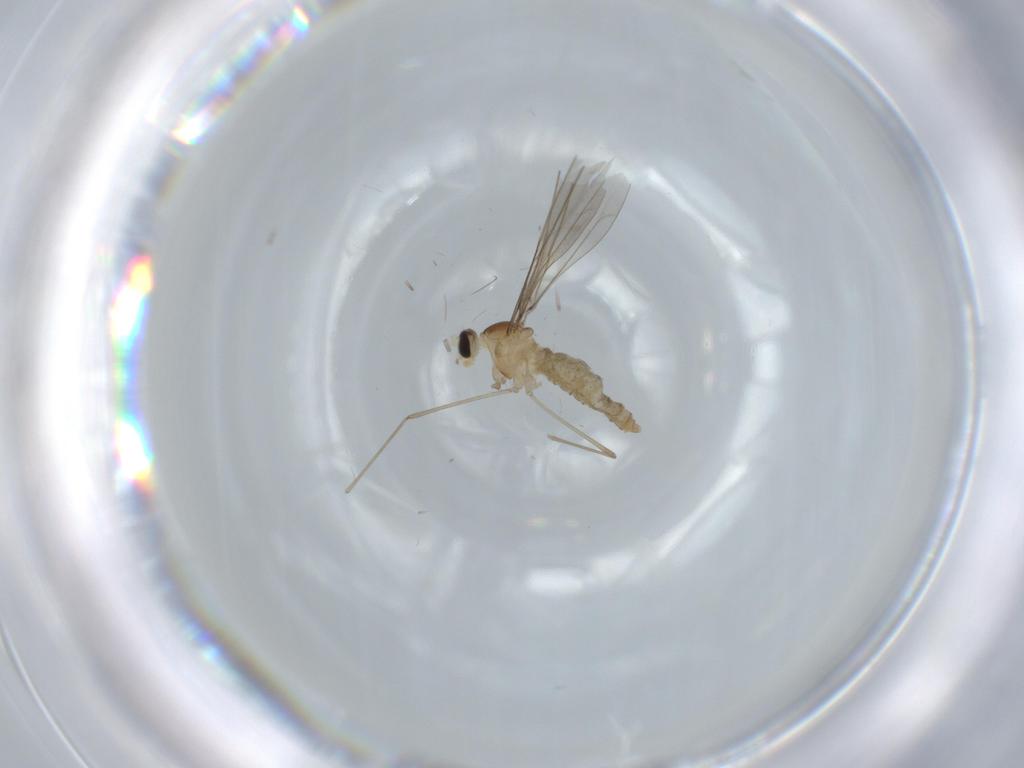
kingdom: Animalia
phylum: Arthropoda
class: Insecta
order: Diptera
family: Cecidomyiidae
